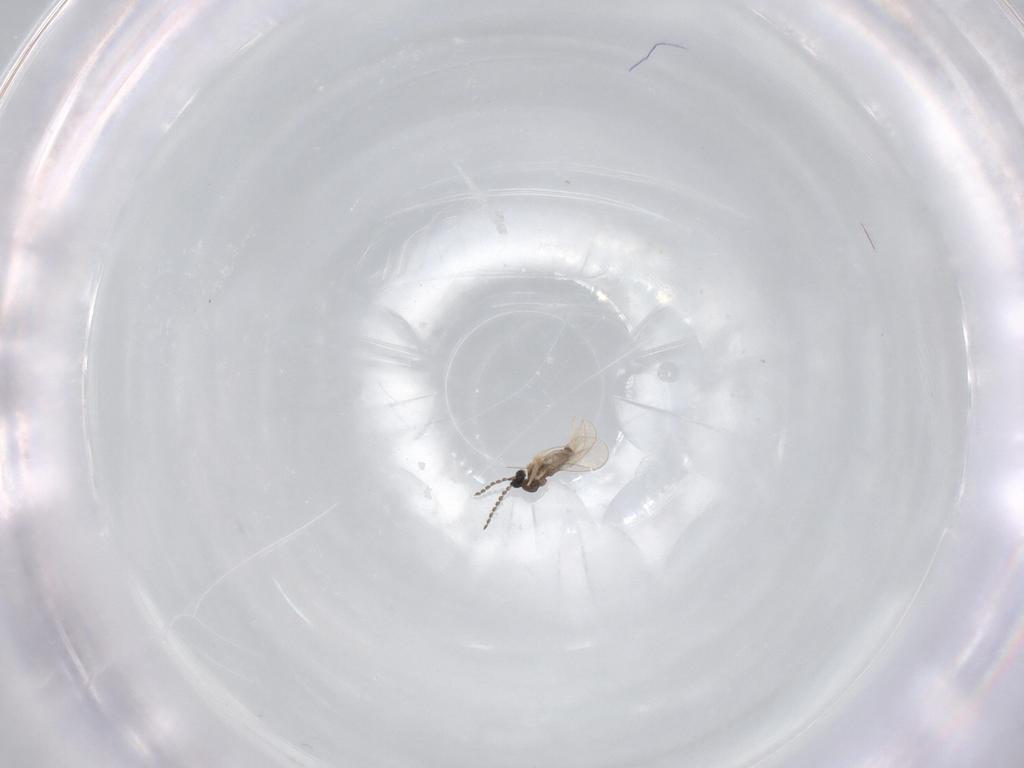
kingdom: Animalia
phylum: Arthropoda
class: Insecta
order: Diptera
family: Cecidomyiidae
